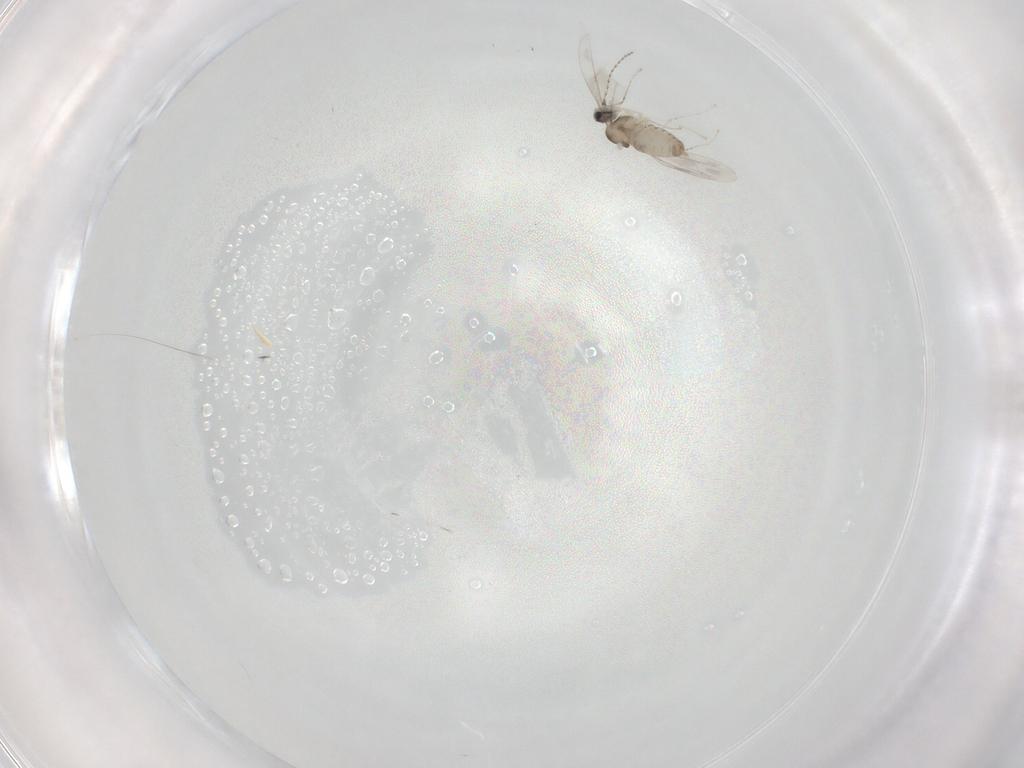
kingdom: Animalia
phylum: Arthropoda
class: Insecta
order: Diptera
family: Cecidomyiidae
